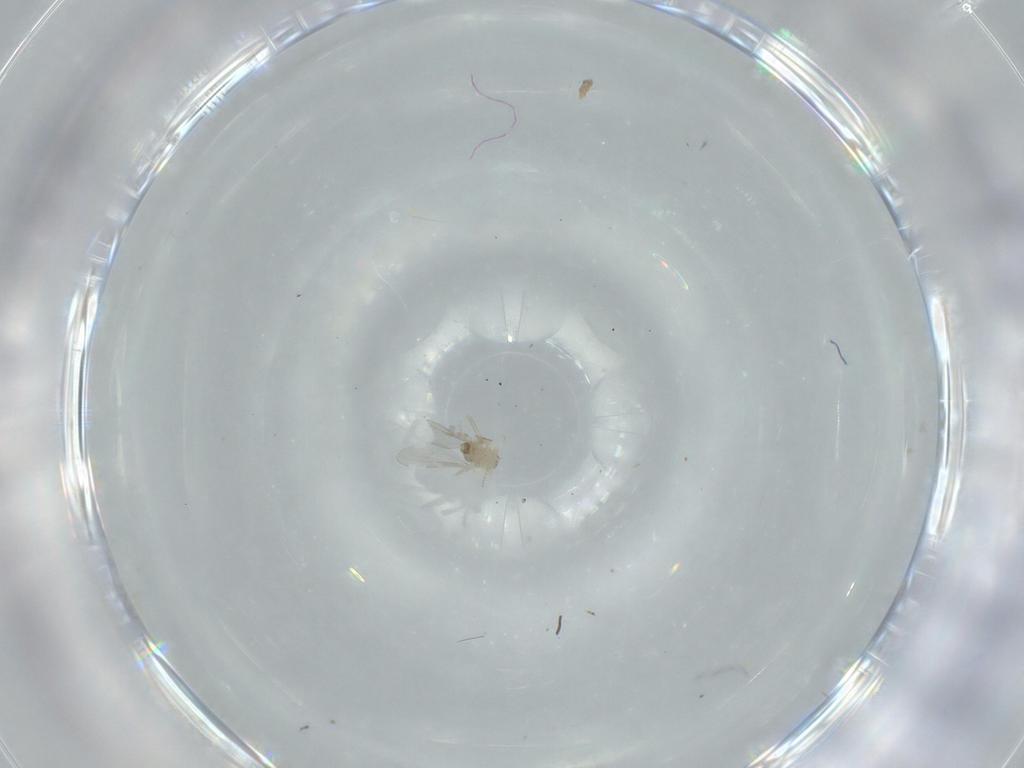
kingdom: Animalia
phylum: Arthropoda
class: Insecta
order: Diptera
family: Cecidomyiidae
